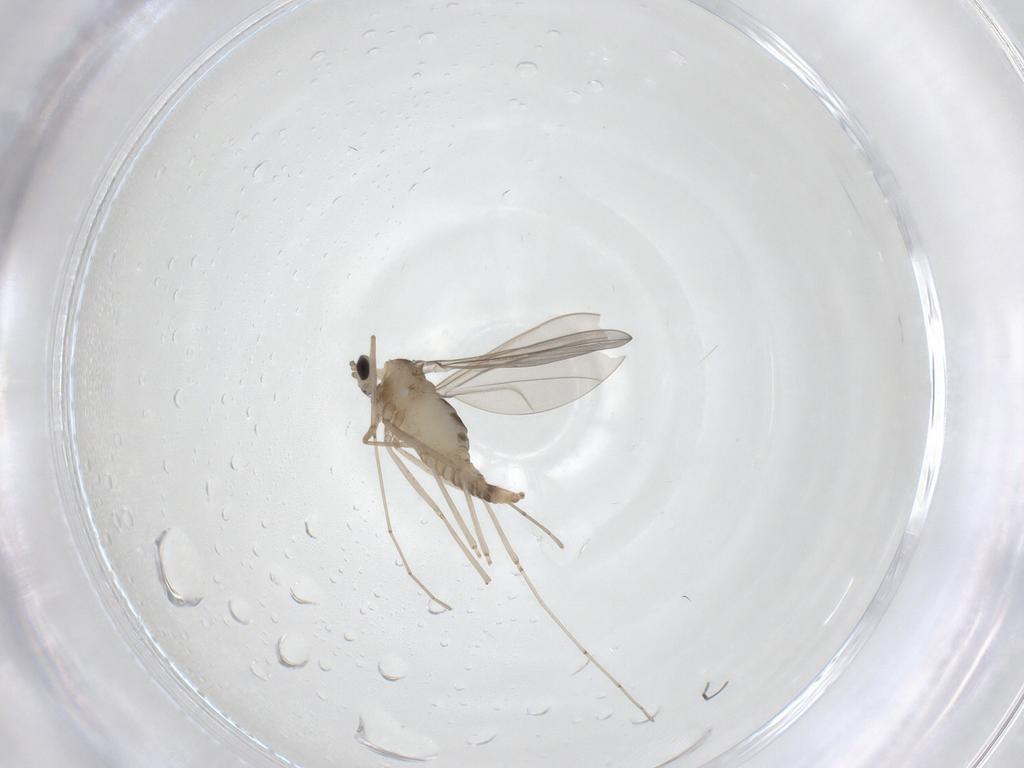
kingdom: Animalia
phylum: Arthropoda
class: Insecta
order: Diptera
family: Cecidomyiidae
